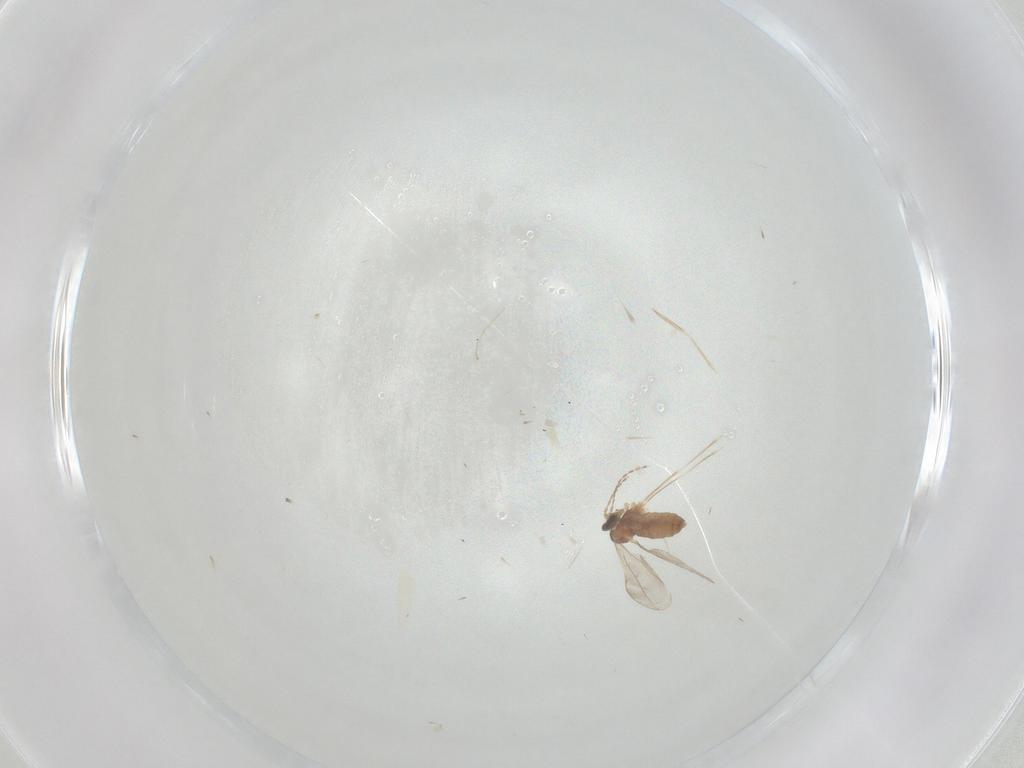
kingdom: Animalia
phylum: Arthropoda
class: Insecta
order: Diptera
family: Cecidomyiidae
